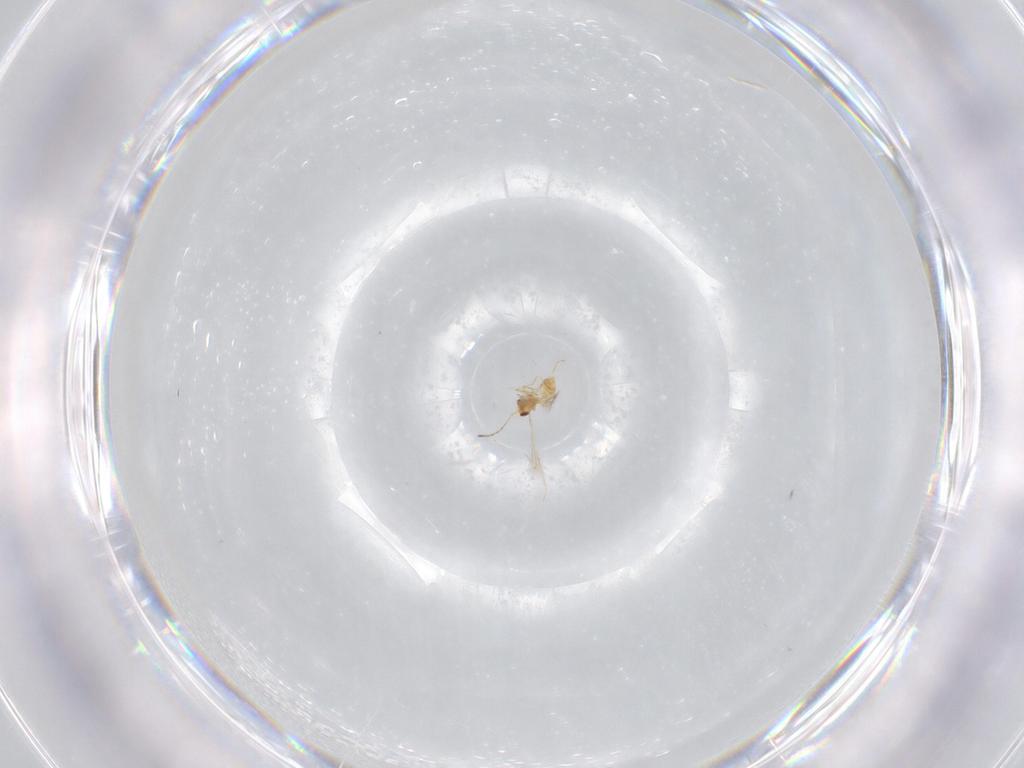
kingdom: Animalia
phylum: Arthropoda
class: Insecta
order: Hymenoptera
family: Mymaridae
